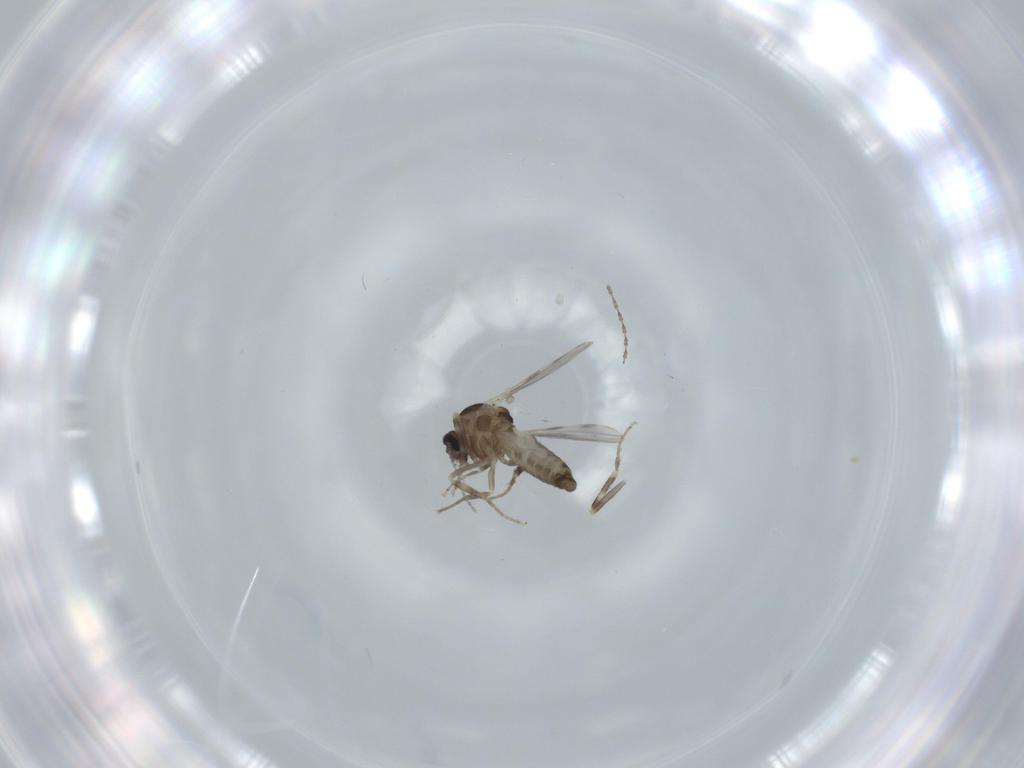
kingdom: Animalia
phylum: Arthropoda
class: Insecta
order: Diptera
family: Ceratopogonidae
